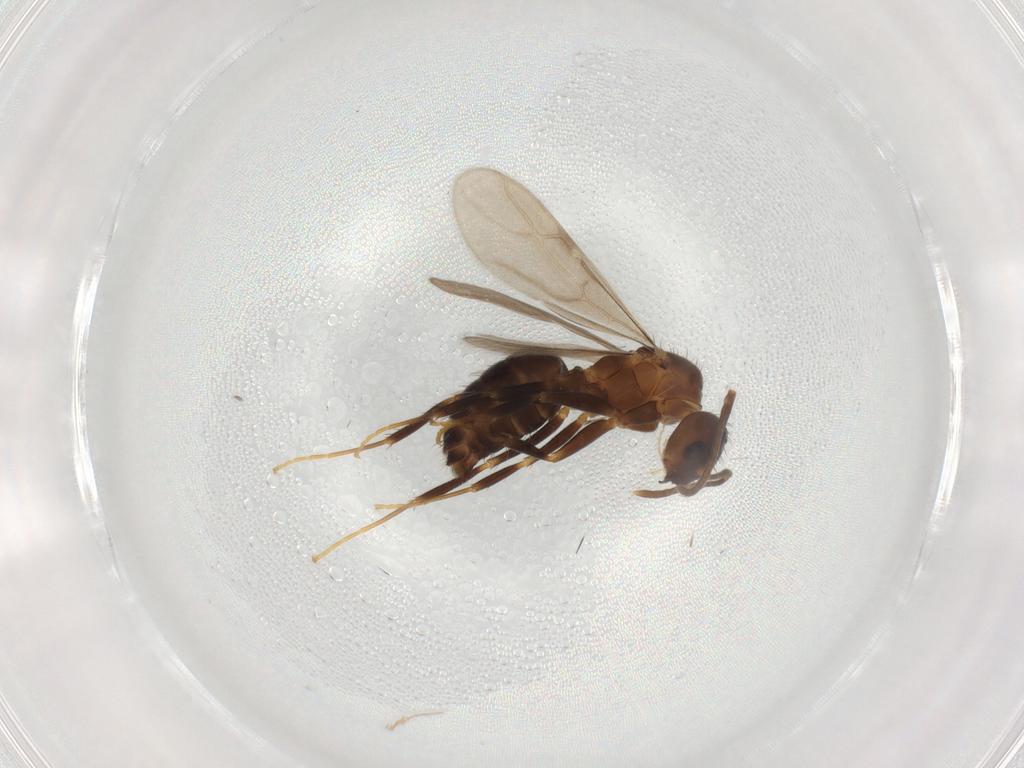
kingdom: Animalia
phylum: Arthropoda
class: Insecta
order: Hymenoptera
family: Formicidae
